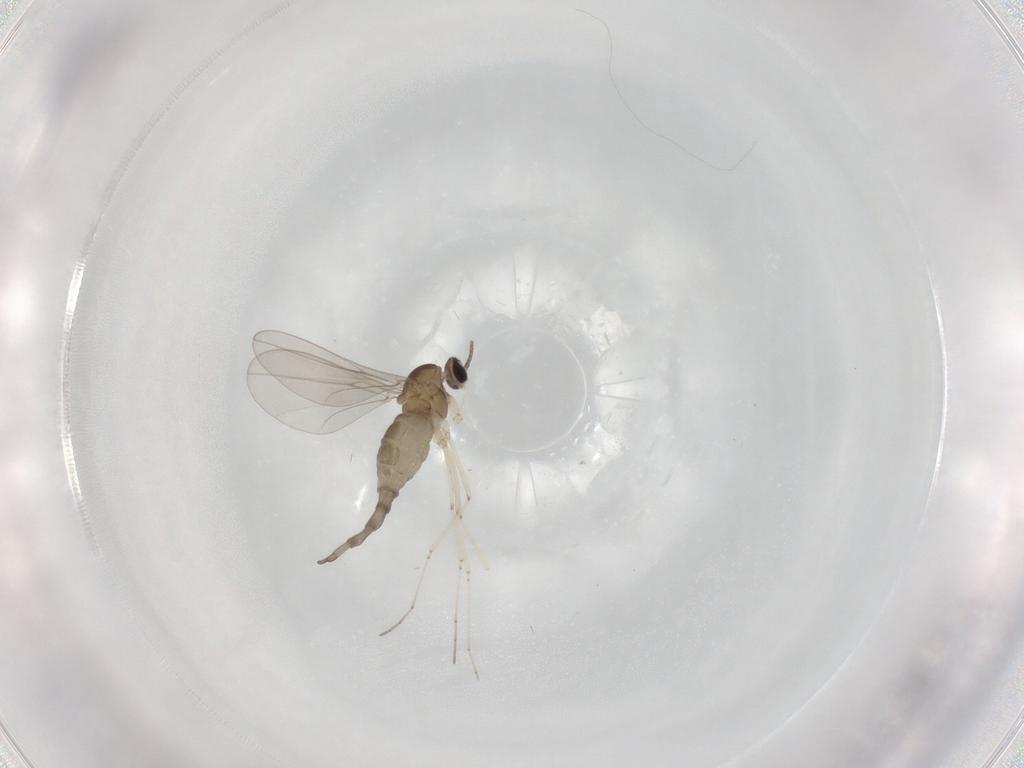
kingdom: Animalia
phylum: Arthropoda
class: Insecta
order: Diptera
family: Cecidomyiidae
